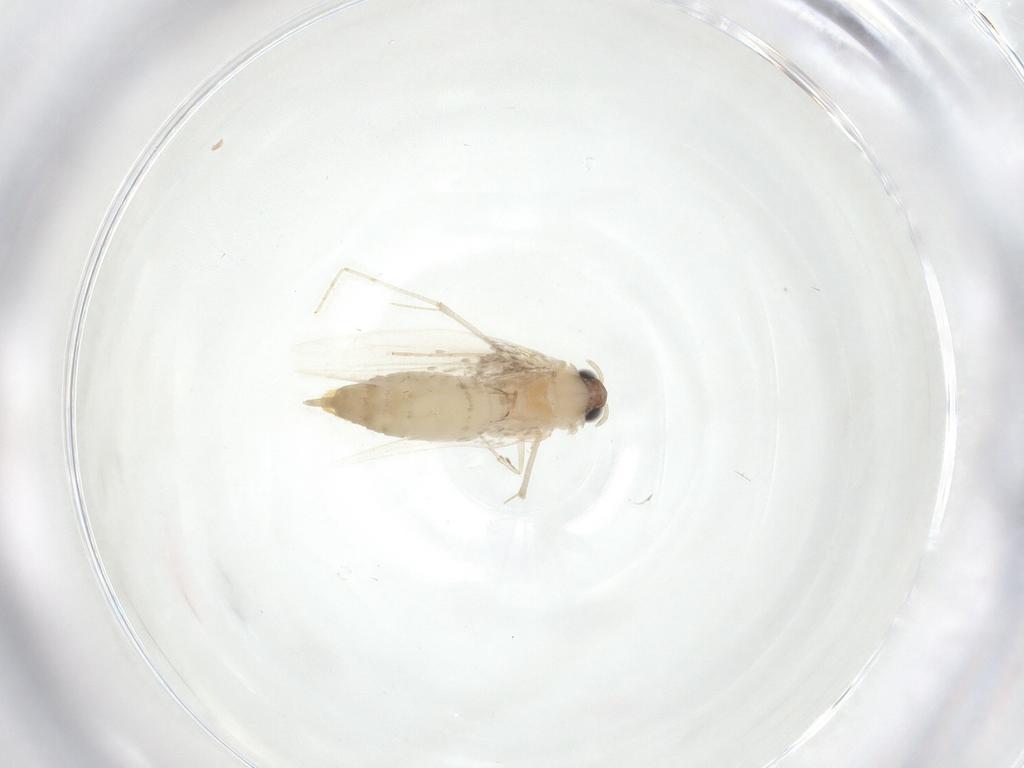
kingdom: Animalia
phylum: Arthropoda
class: Insecta
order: Lepidoptera
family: Tineidae
